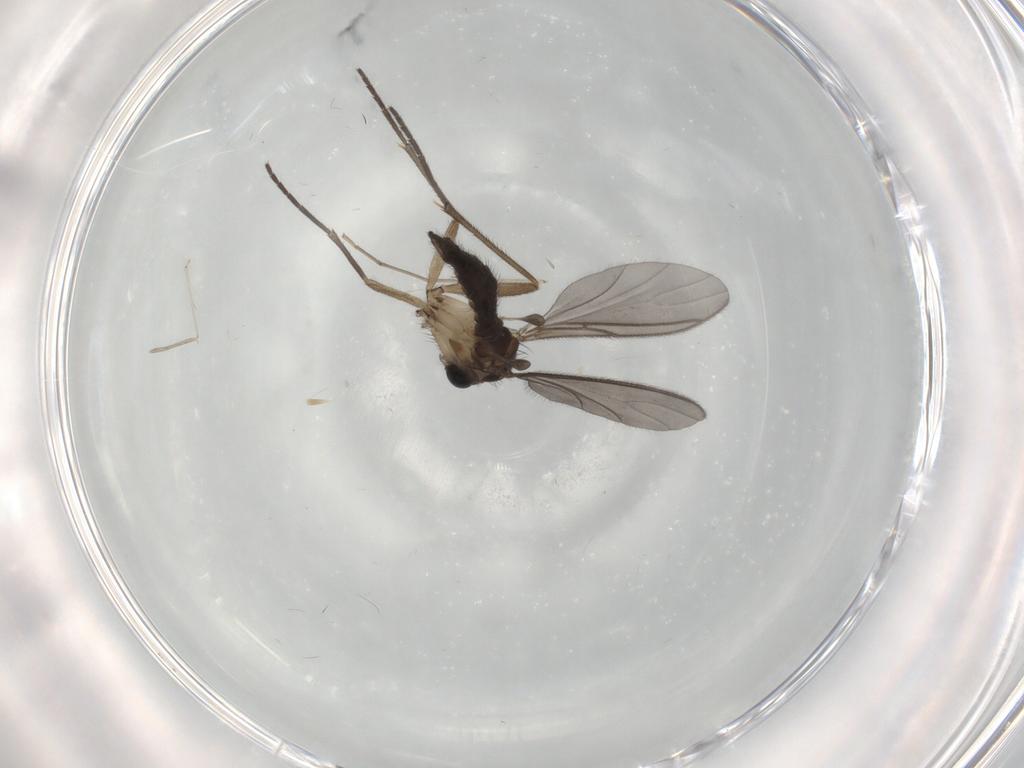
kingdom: Animalia
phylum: Arthropoda
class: Insecta
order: Diptera
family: Sciaridae
